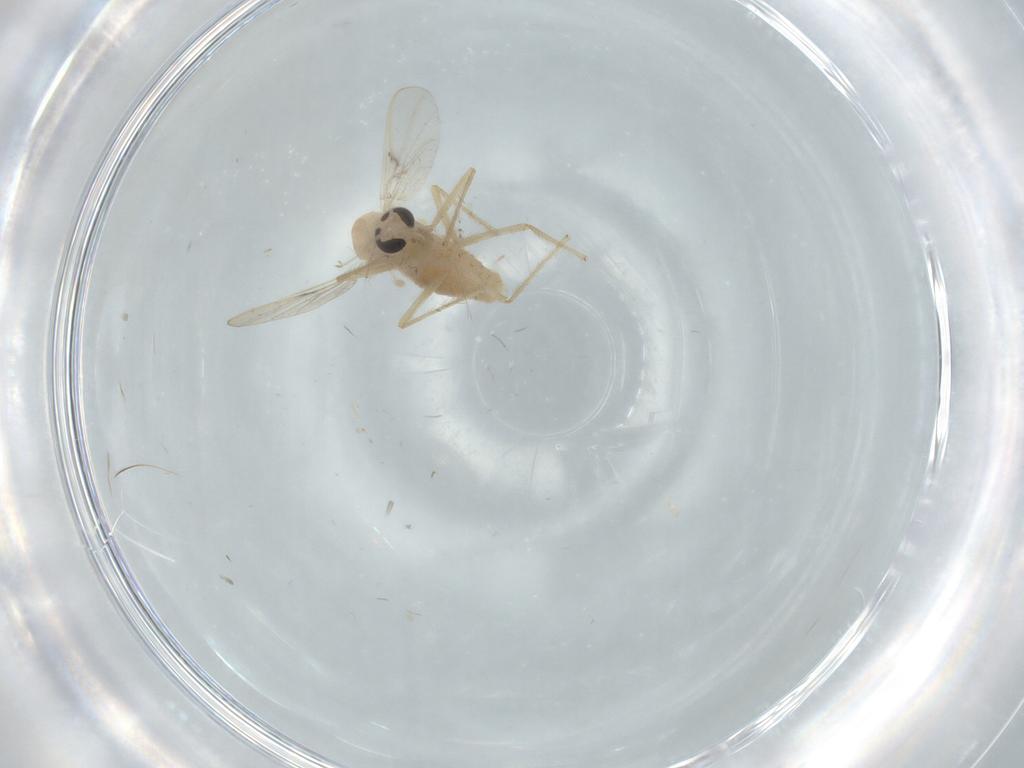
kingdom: Animalia
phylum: Arthropoda
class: Insecta
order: Diptera
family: Chironomidae
